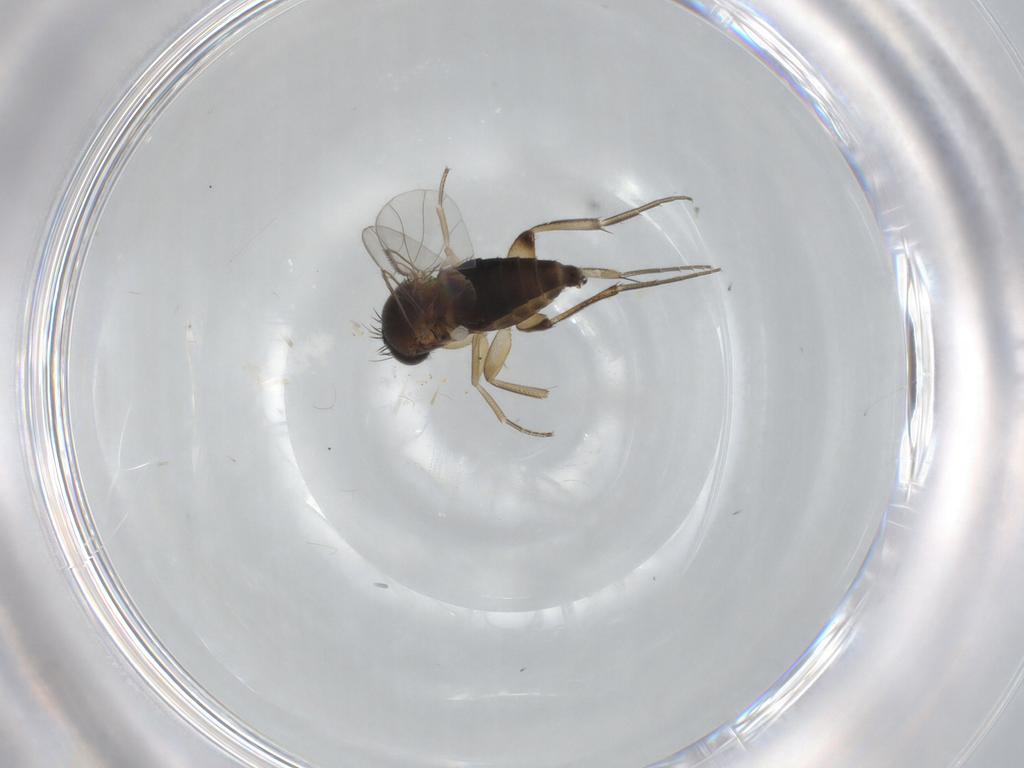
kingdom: Animalia
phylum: Arthropoda
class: Insecta
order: Diptera
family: Phoridae
